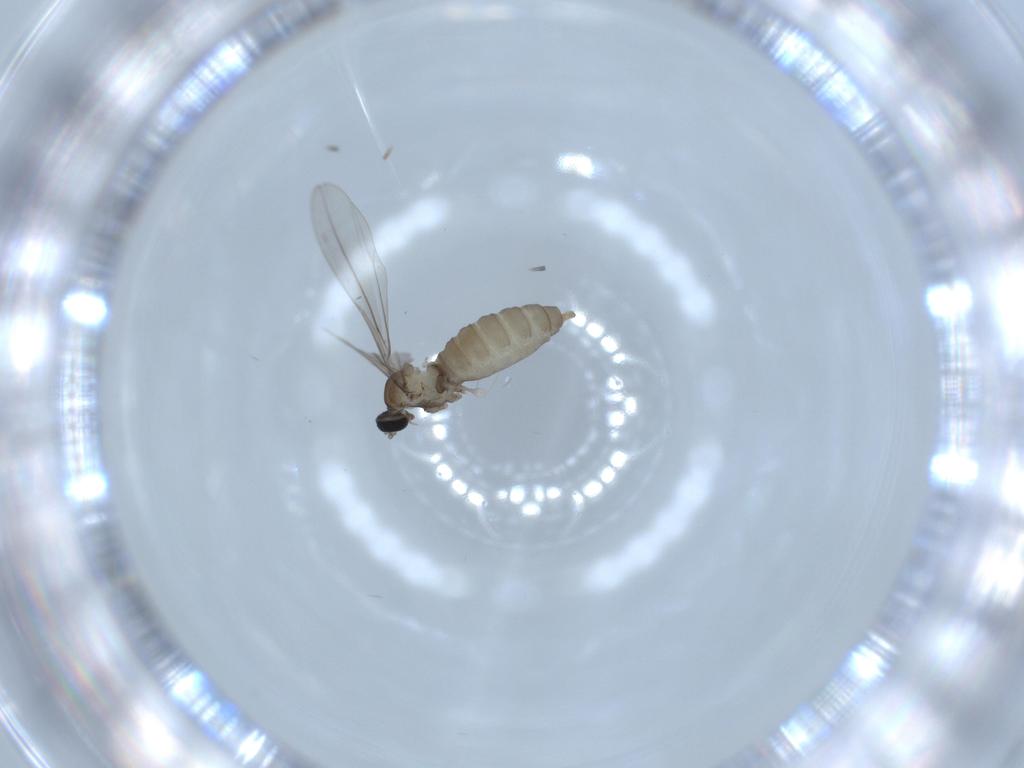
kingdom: Animalia
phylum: Arthropoda
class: Insecta
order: Diptera
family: Cecidomyiidae
